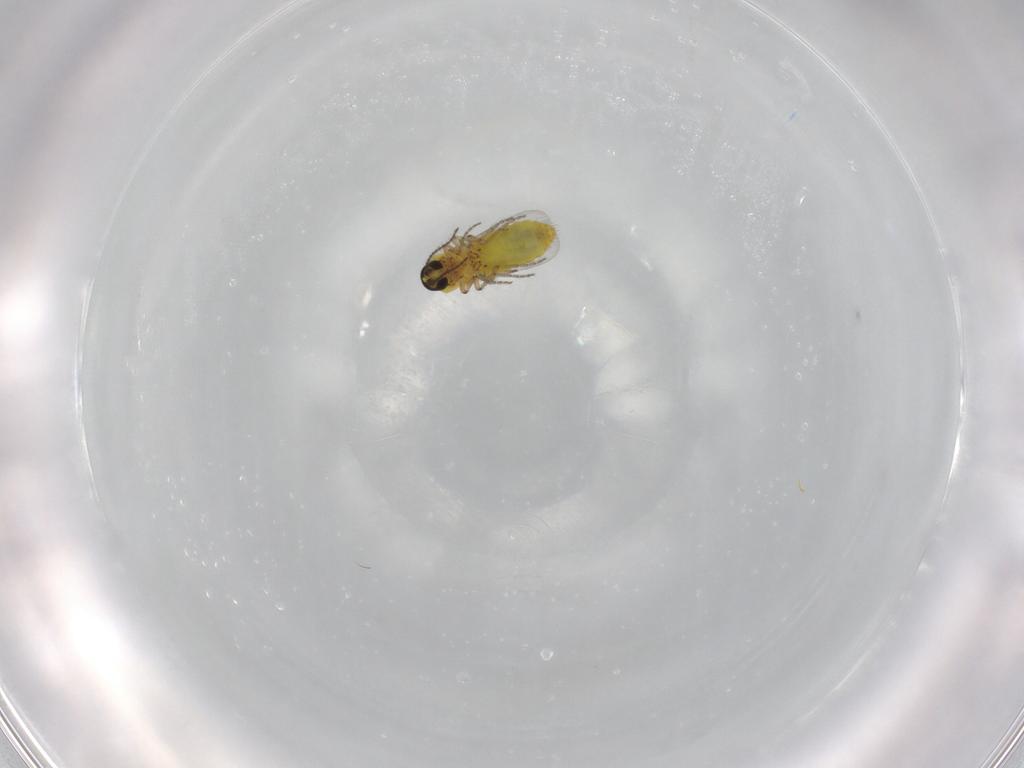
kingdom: Animalia
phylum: Arthropoda
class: Insecta
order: Diptera
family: Ceratopogonidae
